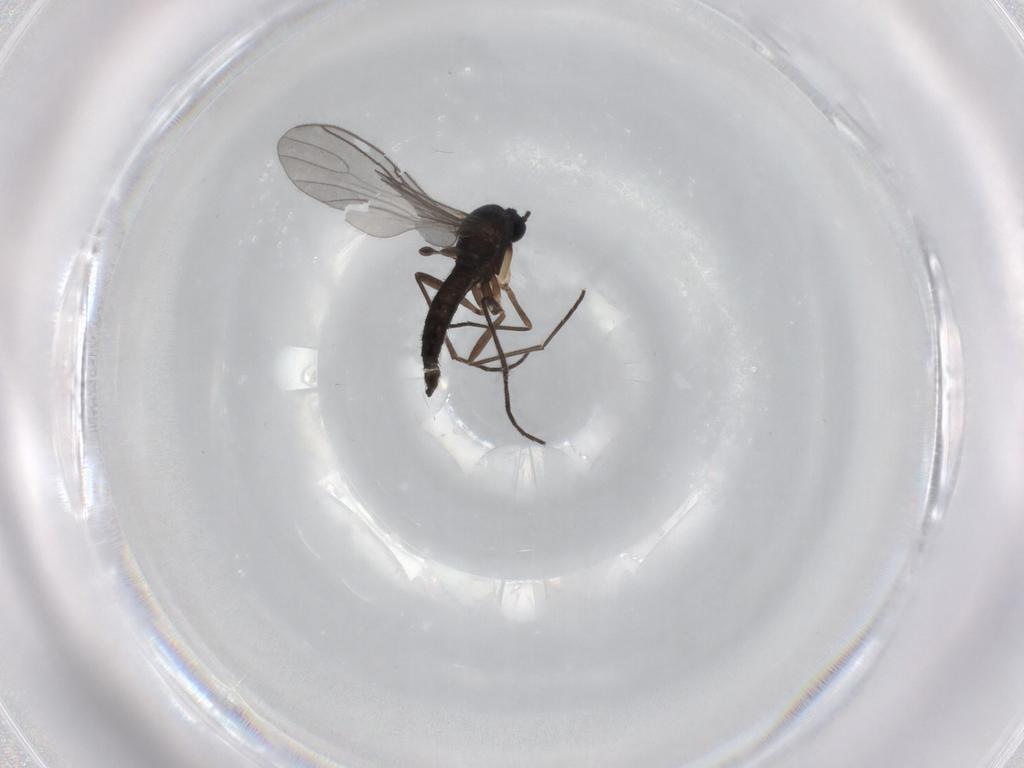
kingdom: Animalia
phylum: Arthropoda
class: Insecta
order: Diptera
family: Sciaridae
